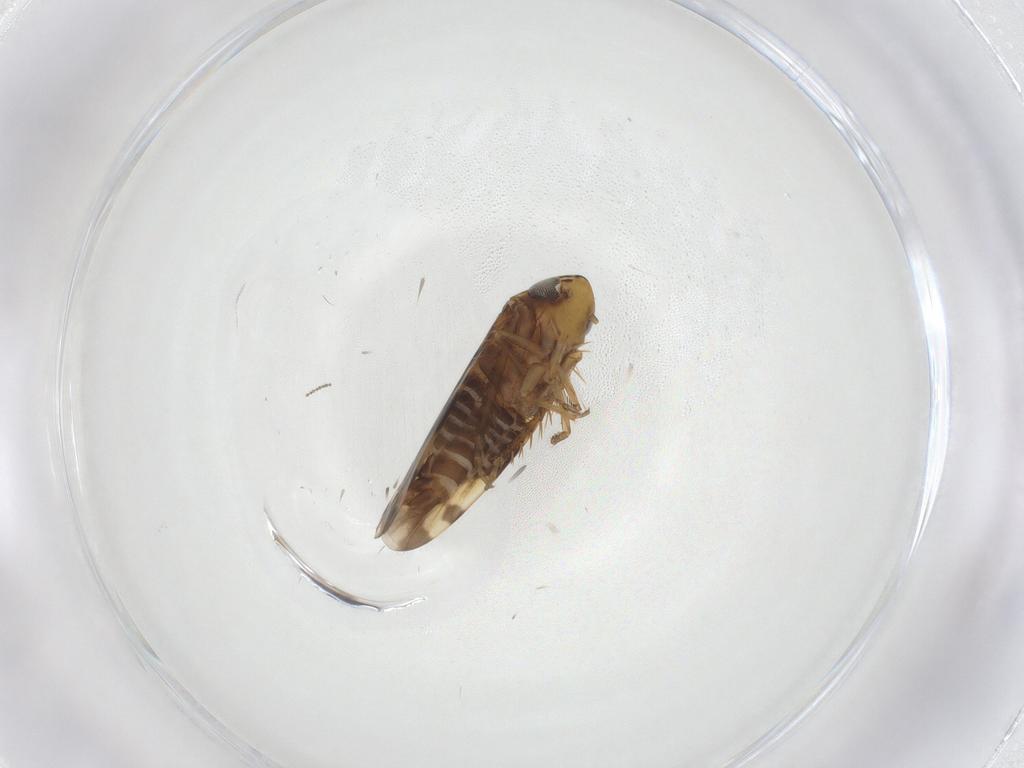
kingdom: Animalia
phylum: Arthropoda
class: Insecta
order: Hemiptera
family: Cicadellidae
